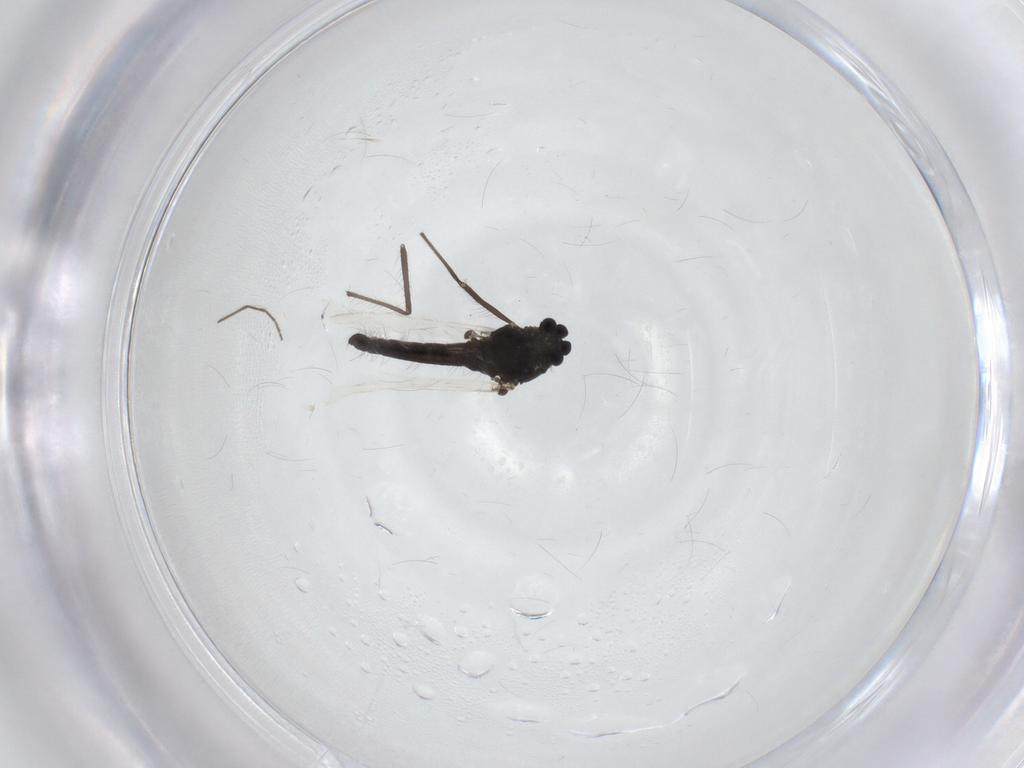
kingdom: Animalia
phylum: Arthropoda
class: Insecta
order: Diptera
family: Chironomidae
